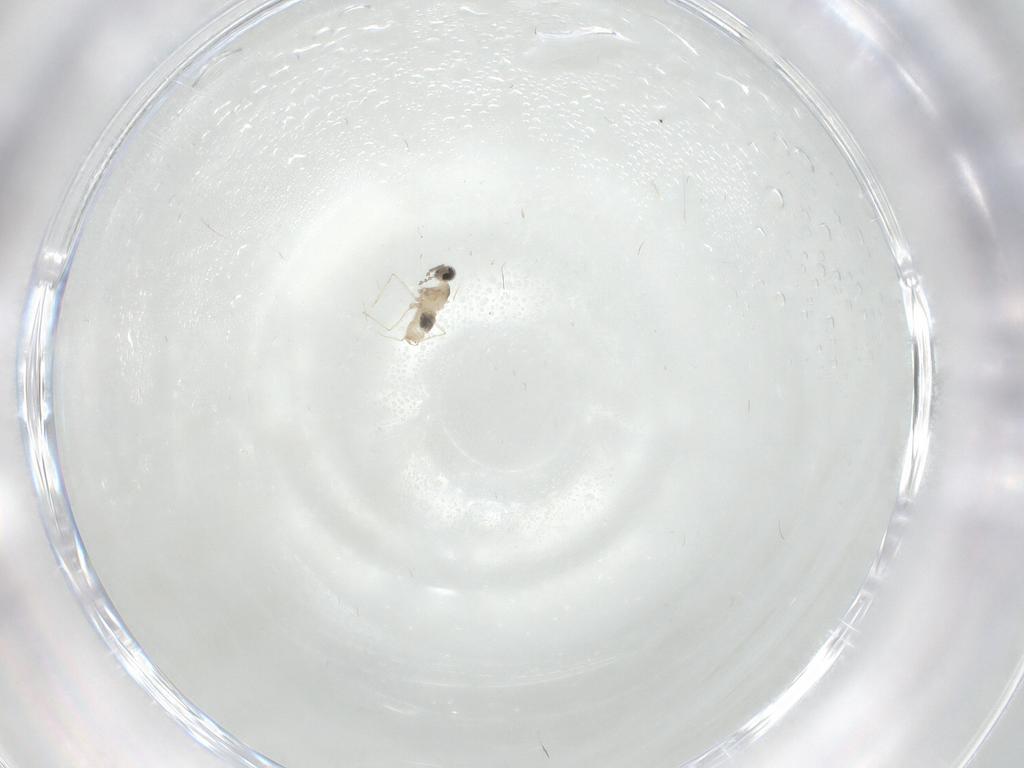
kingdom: Animalia
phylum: Arthropoda
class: Insecta
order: Diptera
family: Cecidomyiidae
